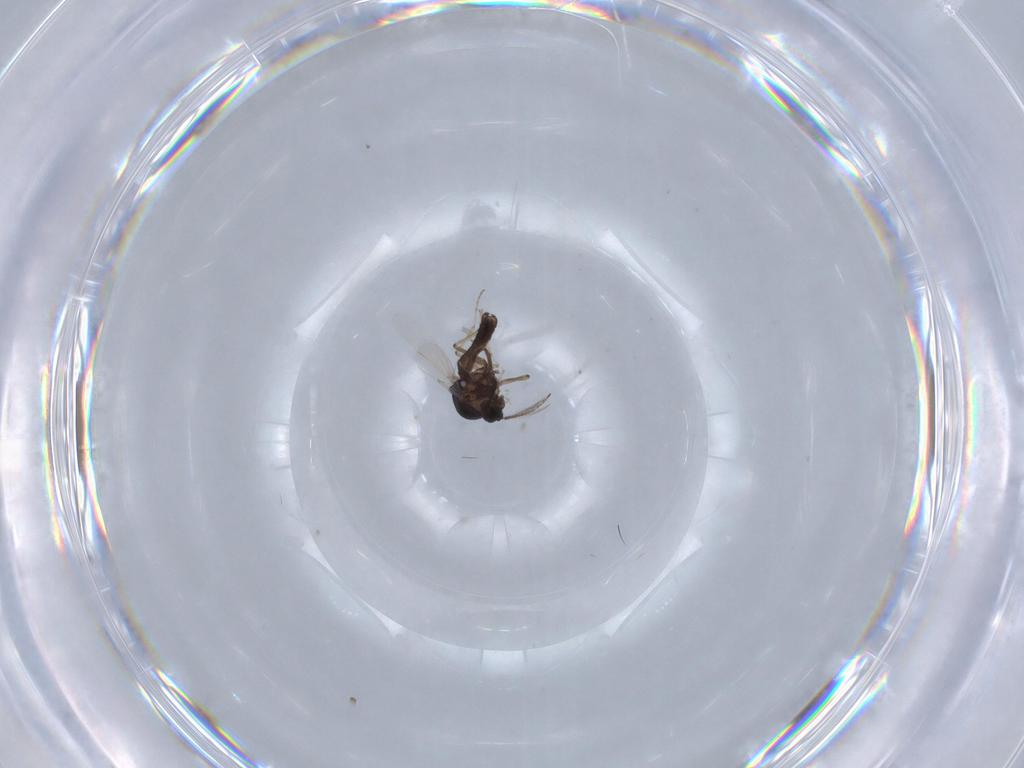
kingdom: Animalia
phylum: Arthropoda
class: Insecta
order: Diptera
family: Ceratopogonidae
